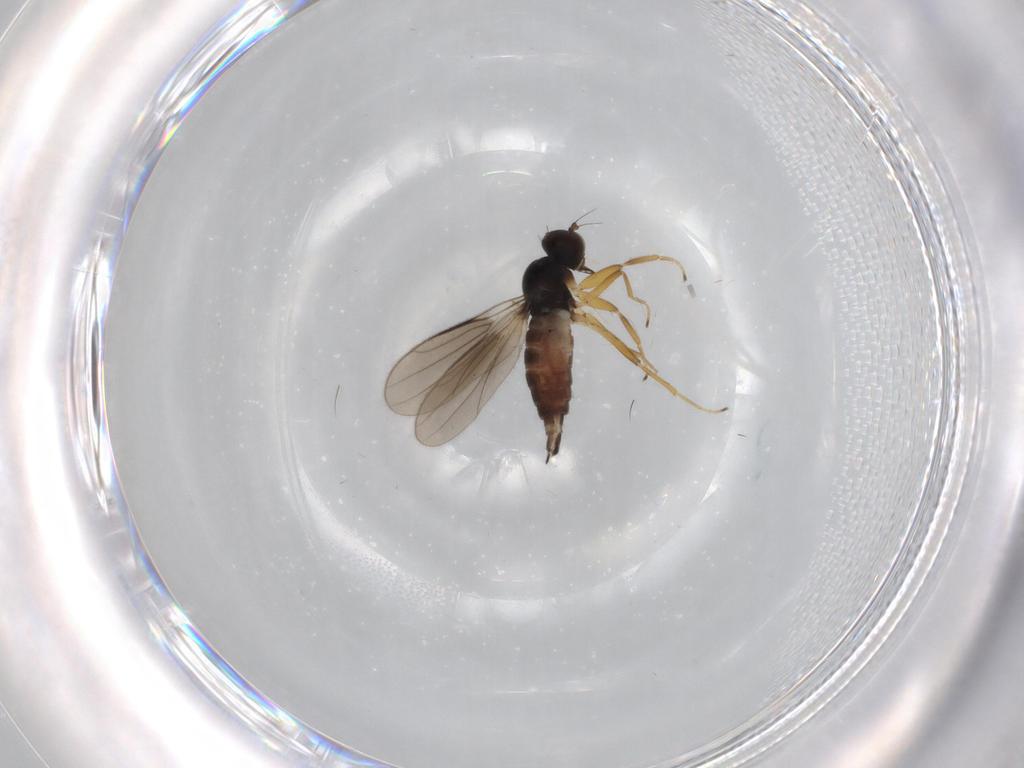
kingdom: Animalia
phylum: Arthropoda
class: Insecta
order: Diptera
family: Hybotidae
